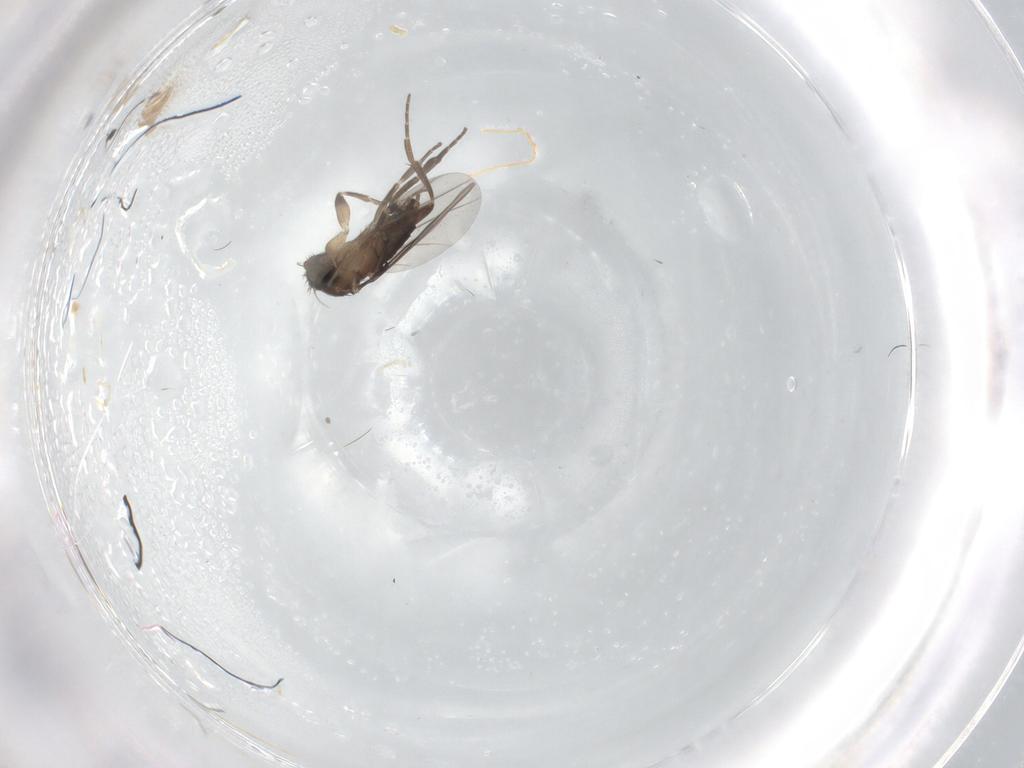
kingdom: Animalia
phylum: Arthropoda
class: Insecta
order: Diptera
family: Phoridae
